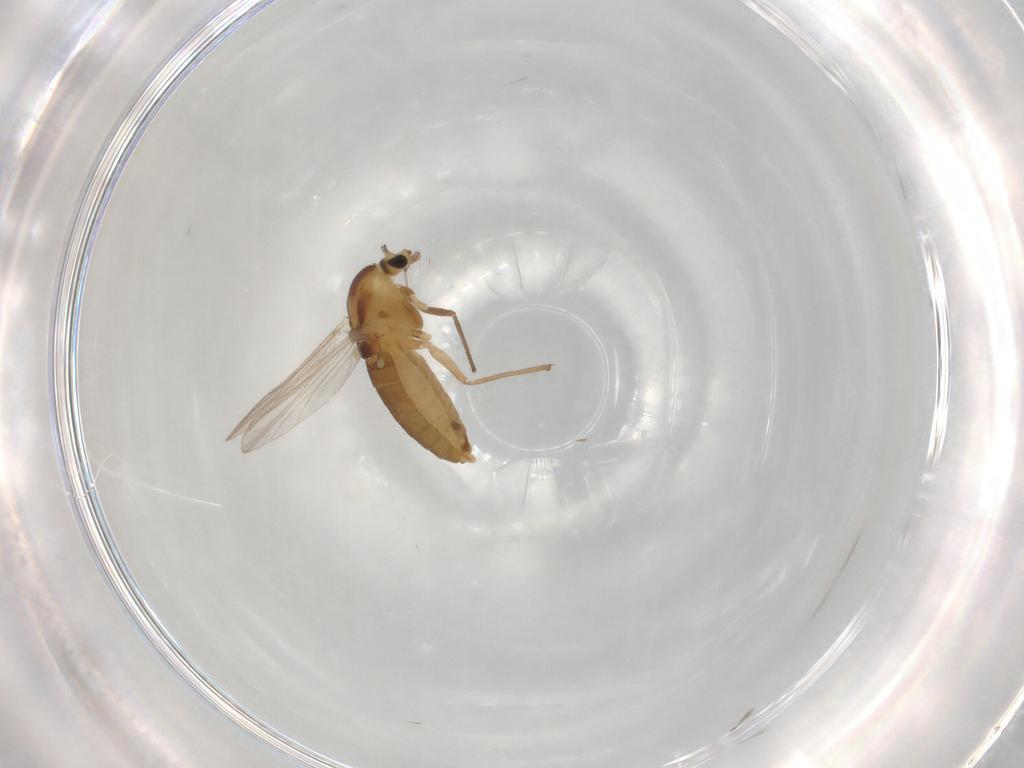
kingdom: Animalia
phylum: Arthropoda
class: Insecta
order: Diptera
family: Chironomidae
